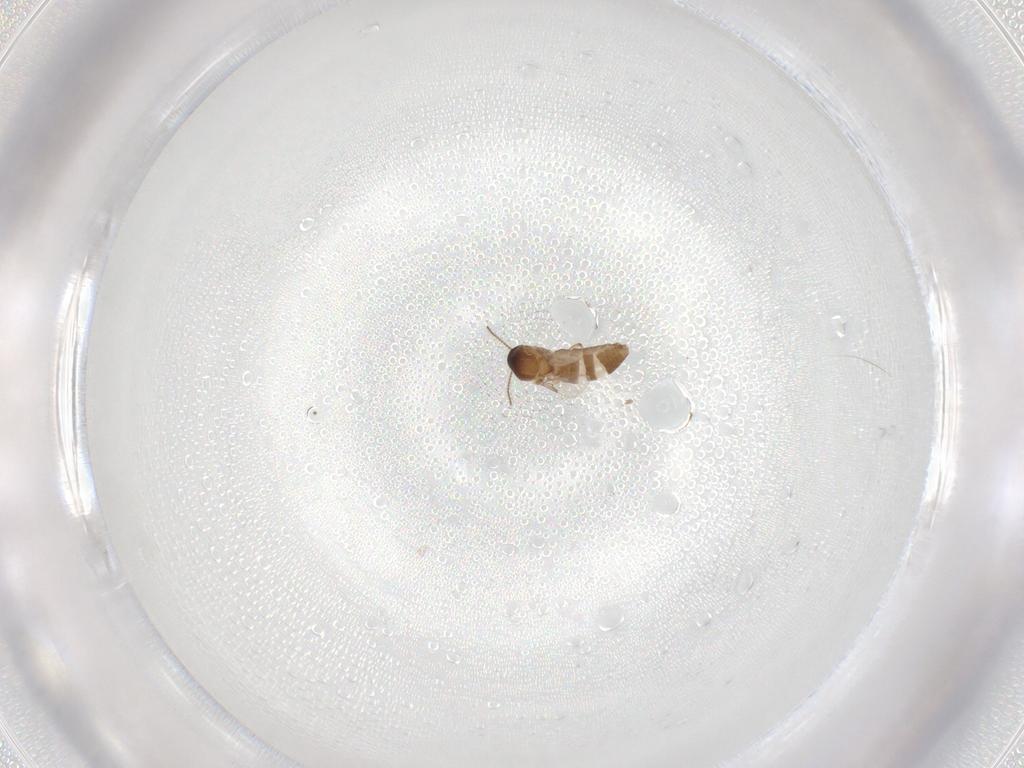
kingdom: Animalia
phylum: Arthropoda
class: Insecta
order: Diptera
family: Ceratopogonidae
